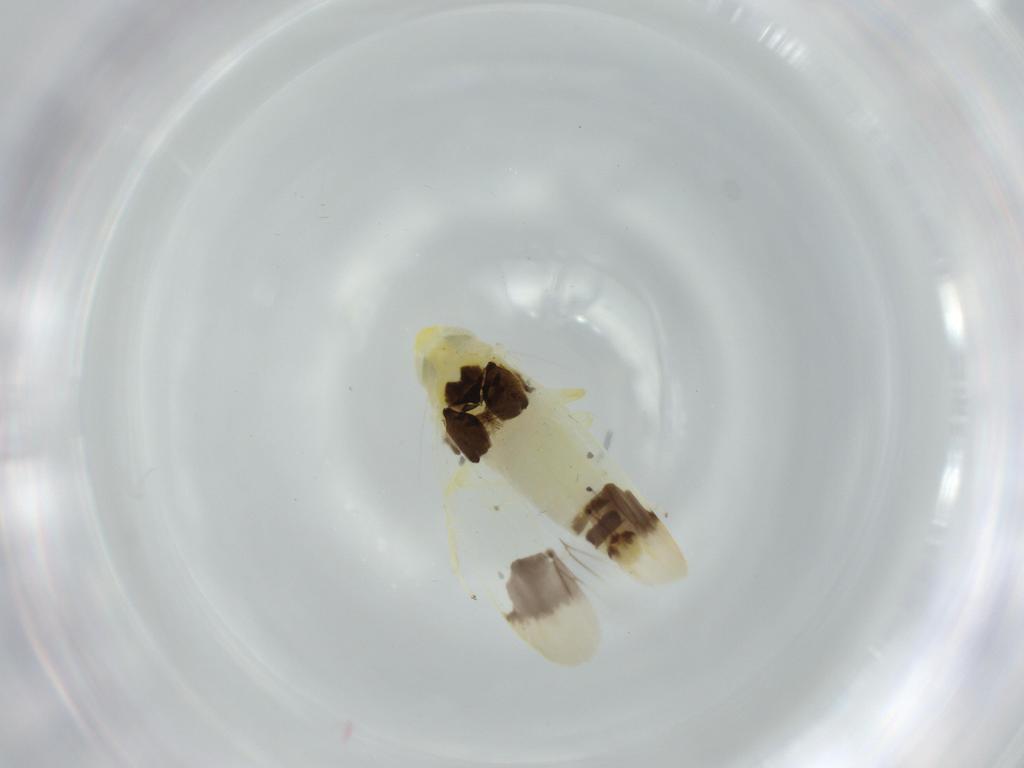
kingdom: Animalia
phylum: Arthropoda
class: Insecta
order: Hemiptera
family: Cicadellidae
